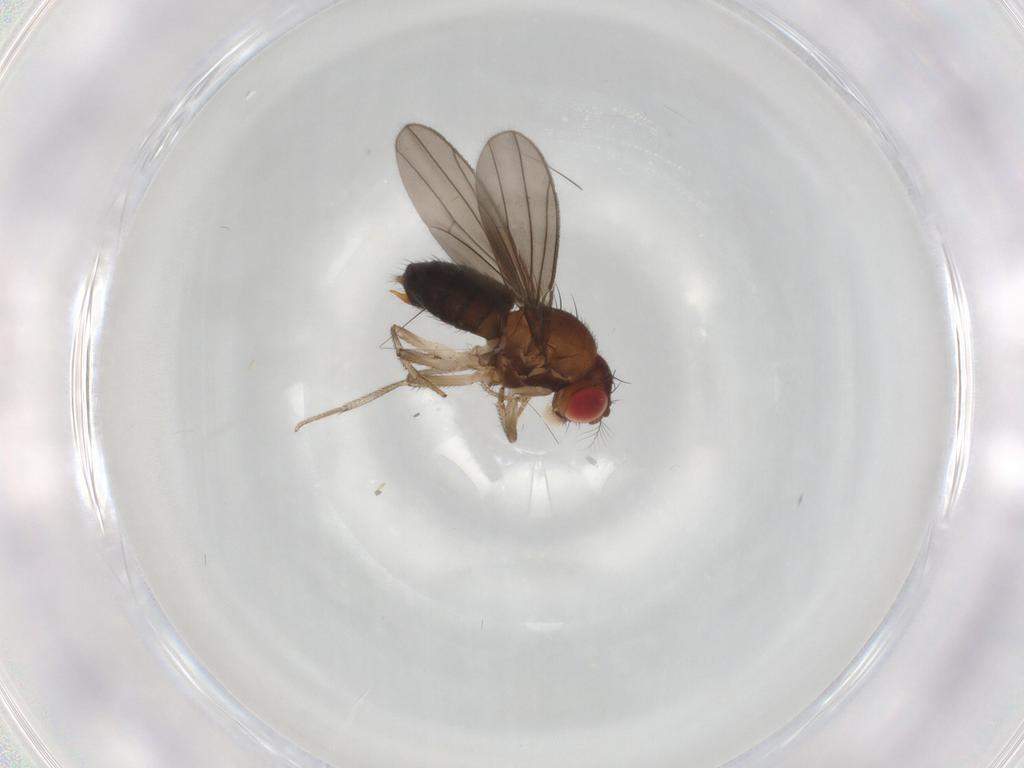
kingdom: Animalia
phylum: Arthropoda
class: Insecta
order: Diptera
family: Drosophilidae
